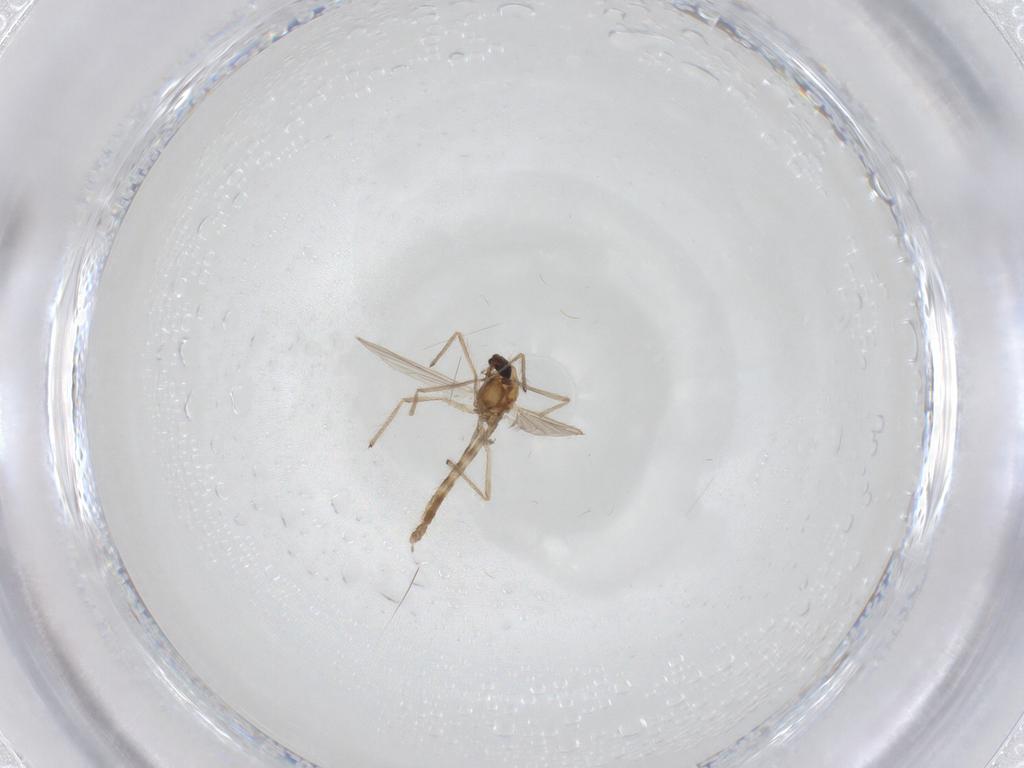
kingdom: Animalia
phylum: Arthropoda
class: Insecta
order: Diptera
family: Chironomidae
